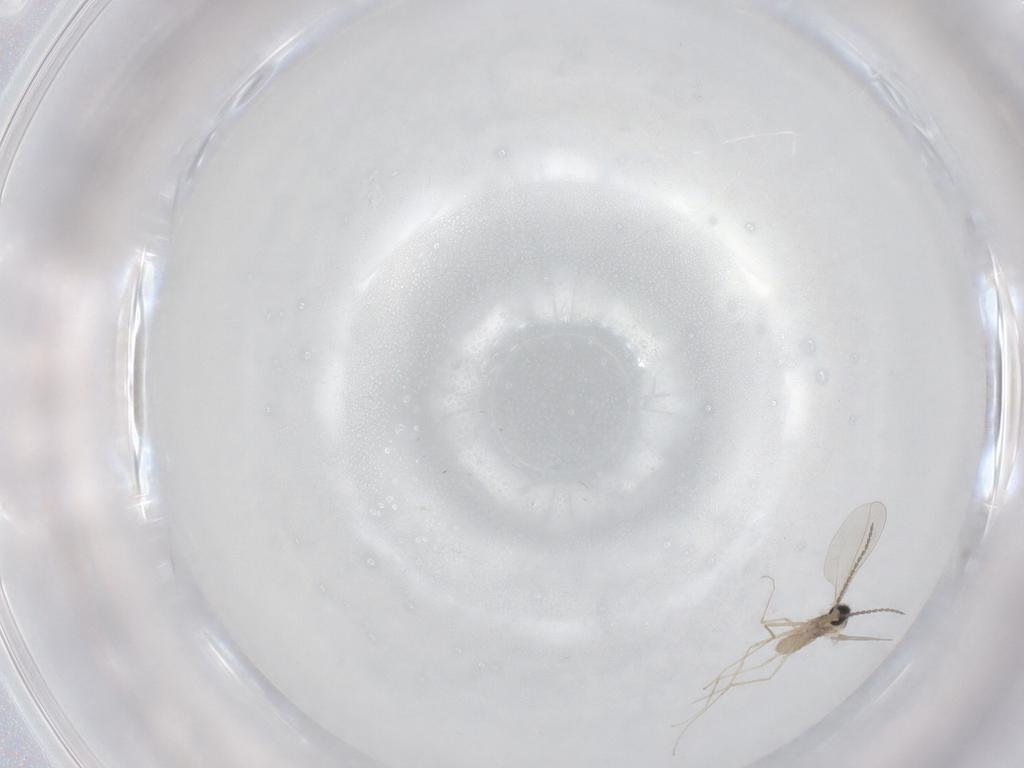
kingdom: Animalia
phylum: Arthropoda
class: Insecta
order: Diptera
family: Cecidomyiidae
